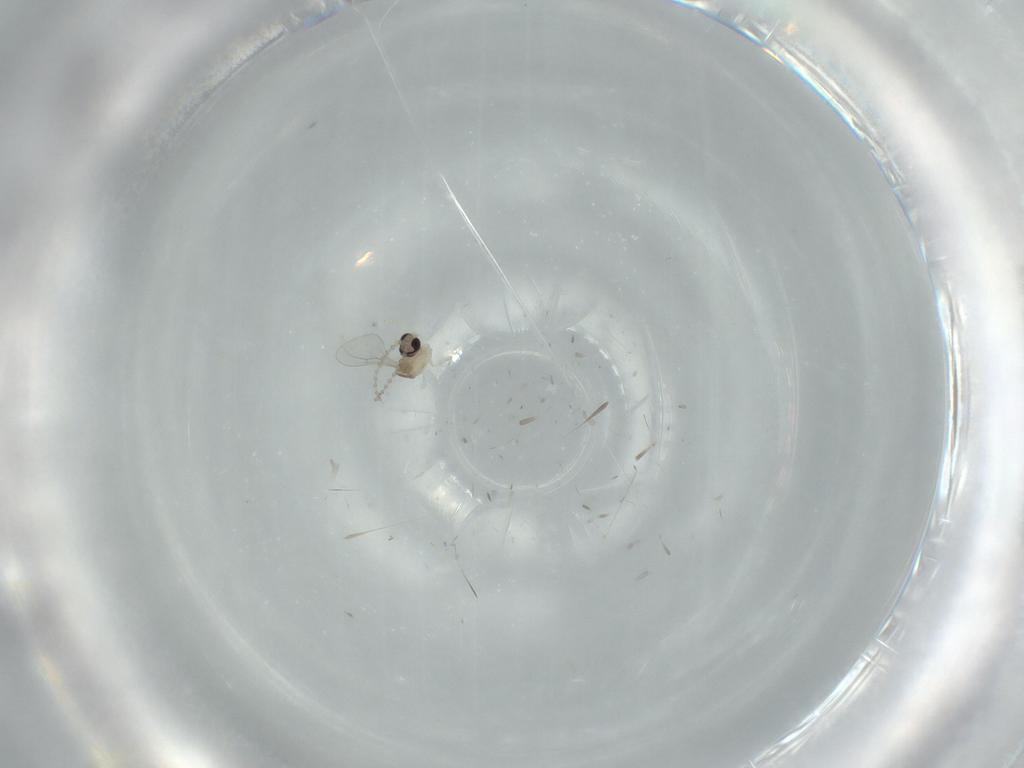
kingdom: Animalia
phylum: Arthropoda
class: Insecta
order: Diptera
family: Cecidomyiidae
